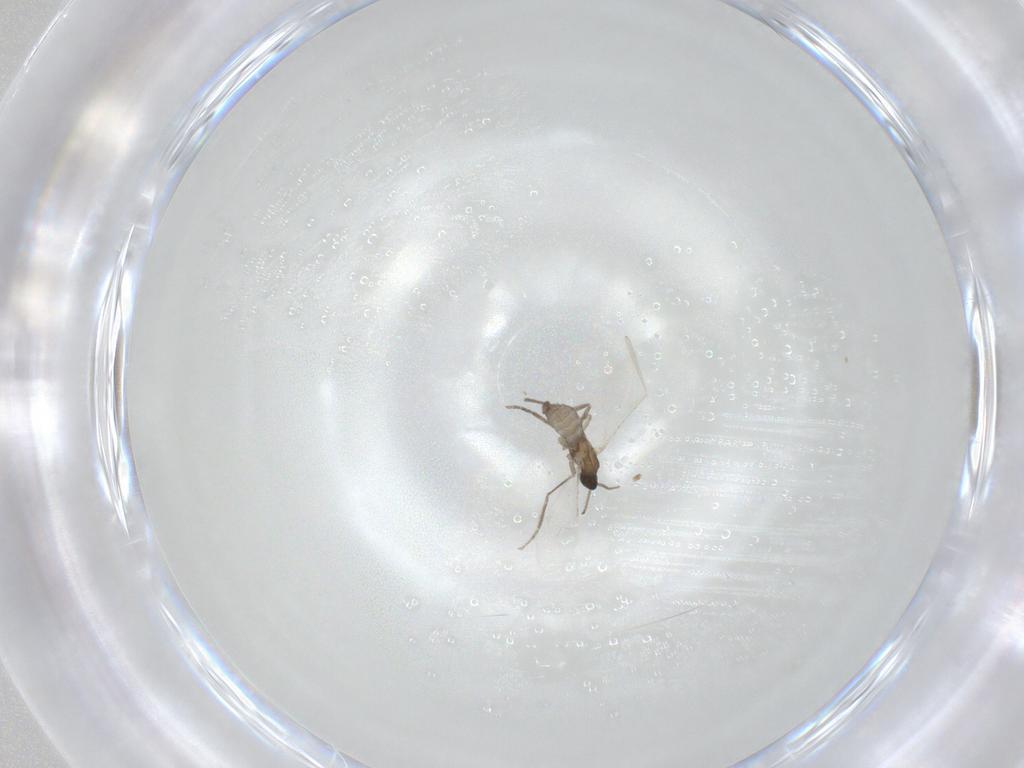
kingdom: Animalia
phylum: Arthropoda
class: Insecta
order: Diptera
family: Cecidomyiidae
